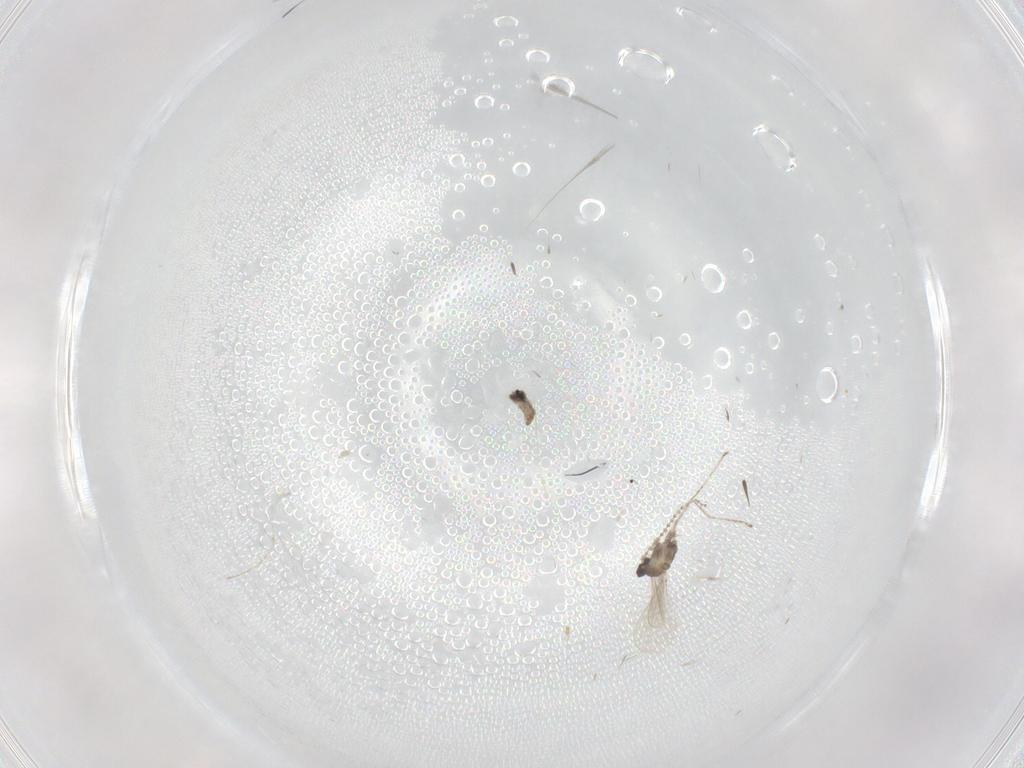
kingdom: Animalia
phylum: Arthropoda
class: Insecta
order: Diptera
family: Cecidomyiidae
